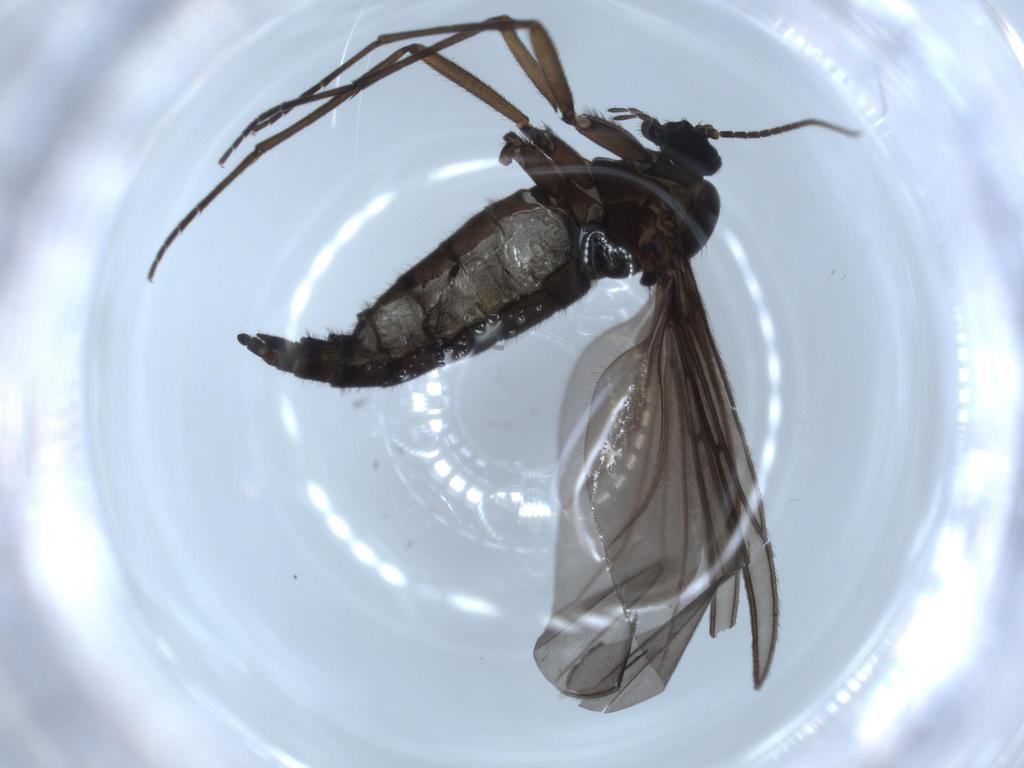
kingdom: Animalia
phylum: Arthropoda
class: Insecta
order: Diptera
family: Sciaridae
